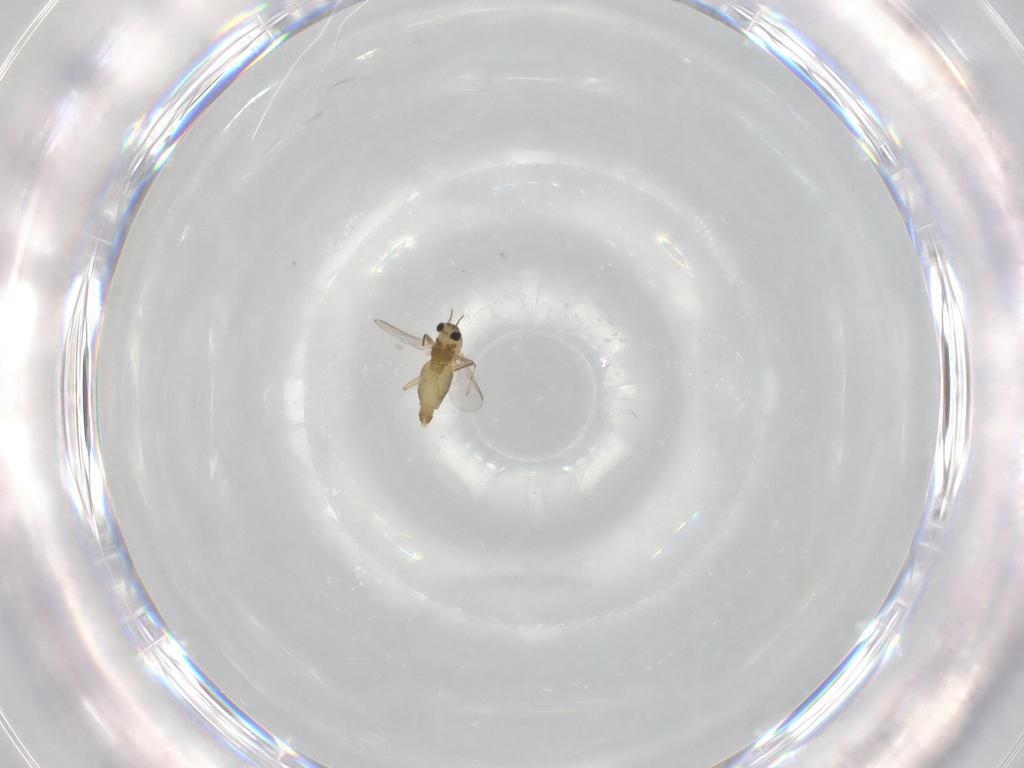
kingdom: Animalia
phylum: Arthropoda
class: Insecta
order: Diptera
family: Chironomidae
